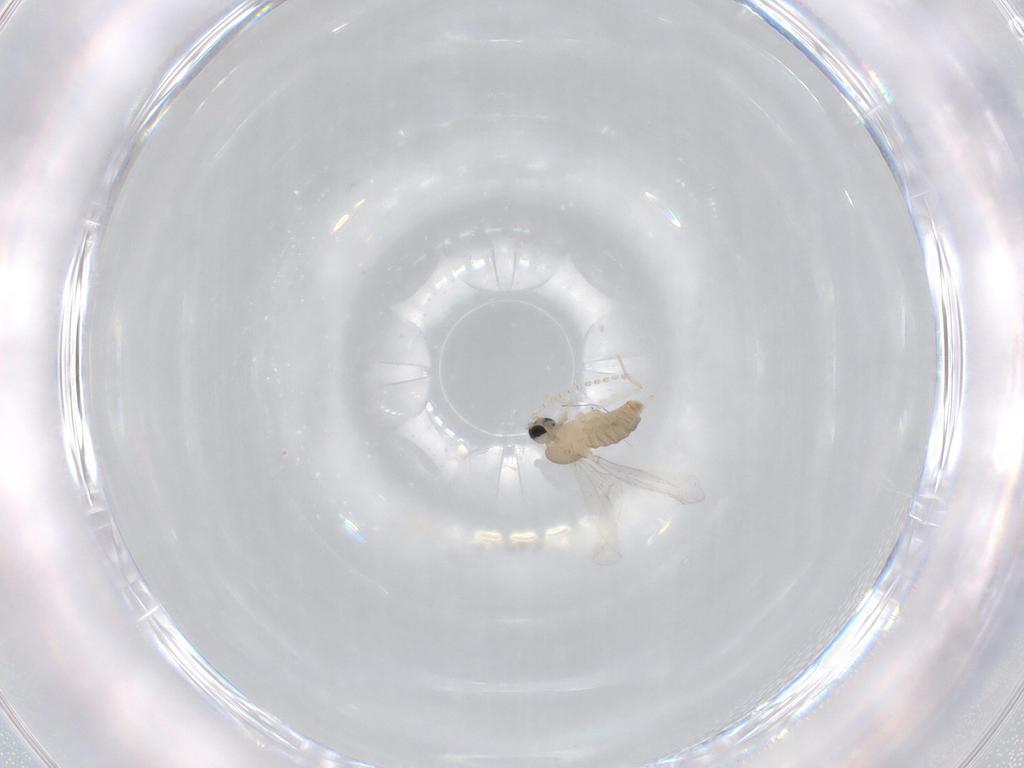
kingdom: Animalia
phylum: Arthropoda
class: Insecta
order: Diptera
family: Cecidomyiidae
